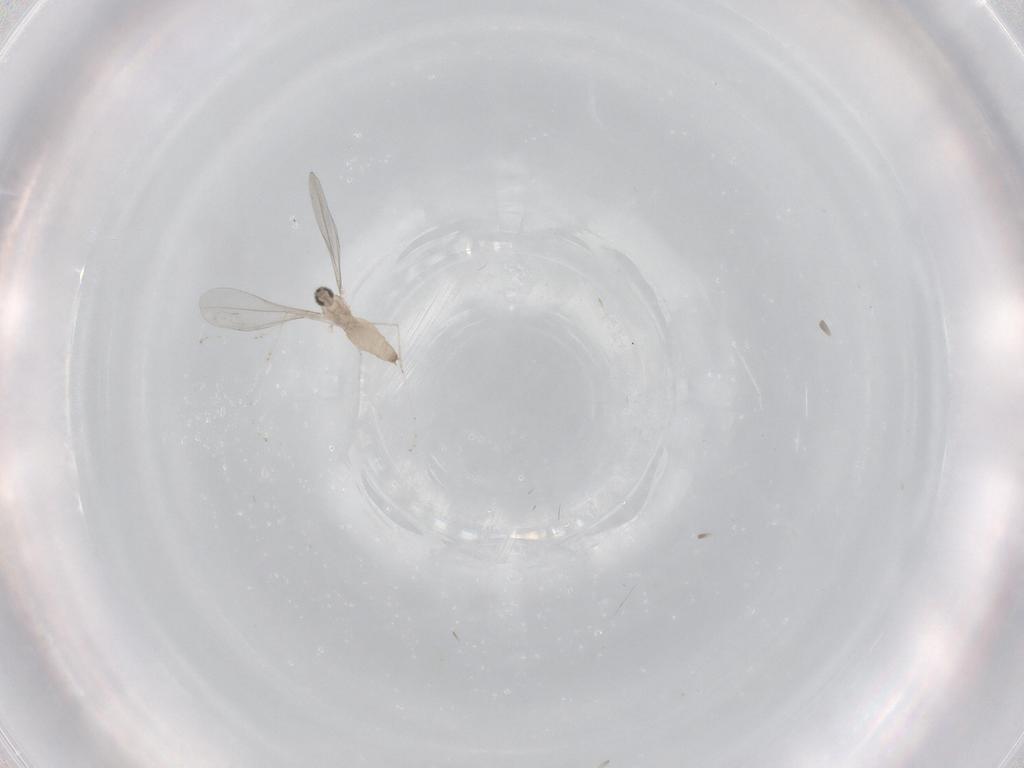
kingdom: Animalia
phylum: Arthropoda
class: Insecta
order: Diptera
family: Cecidomyiidae
